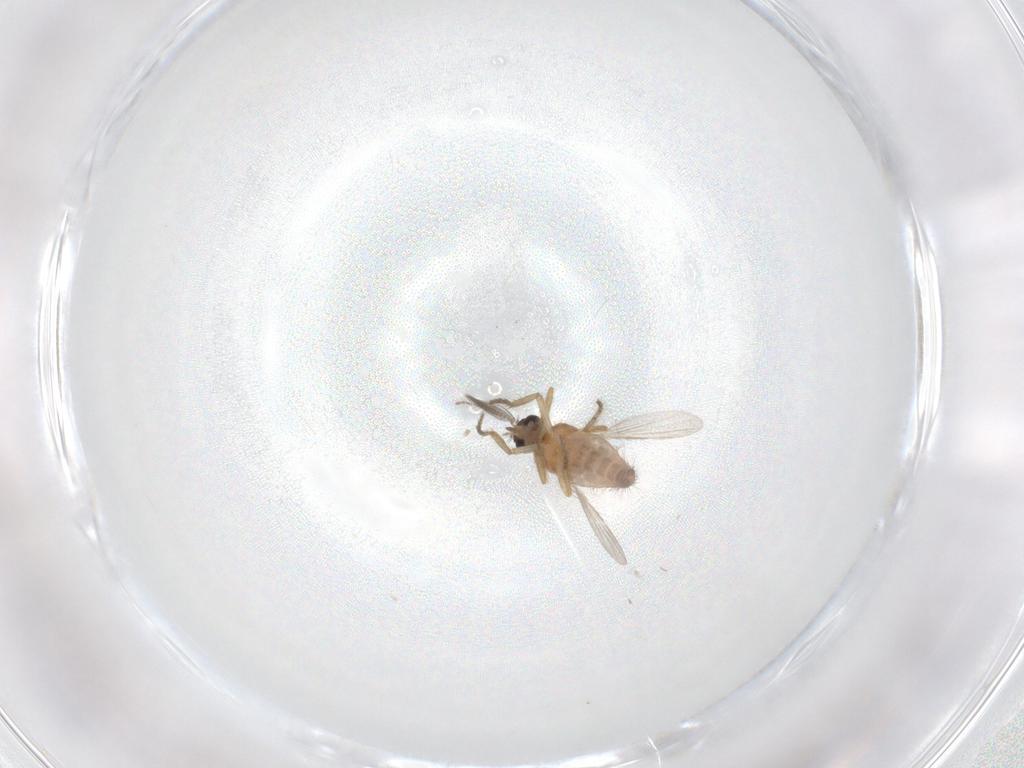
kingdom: Animalia
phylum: Arthropoda
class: Insecta
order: Diptera
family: Ceratopogonidae
